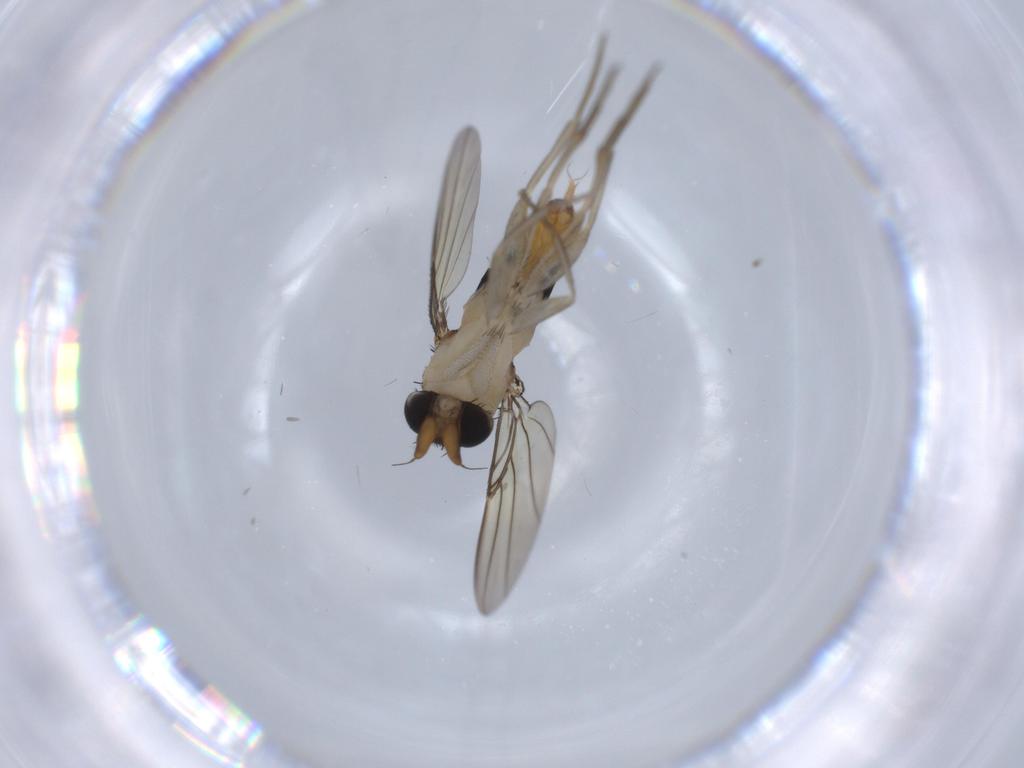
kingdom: Animalia
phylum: Arthropoda
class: Insecta
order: Diptera
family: Phoridae
